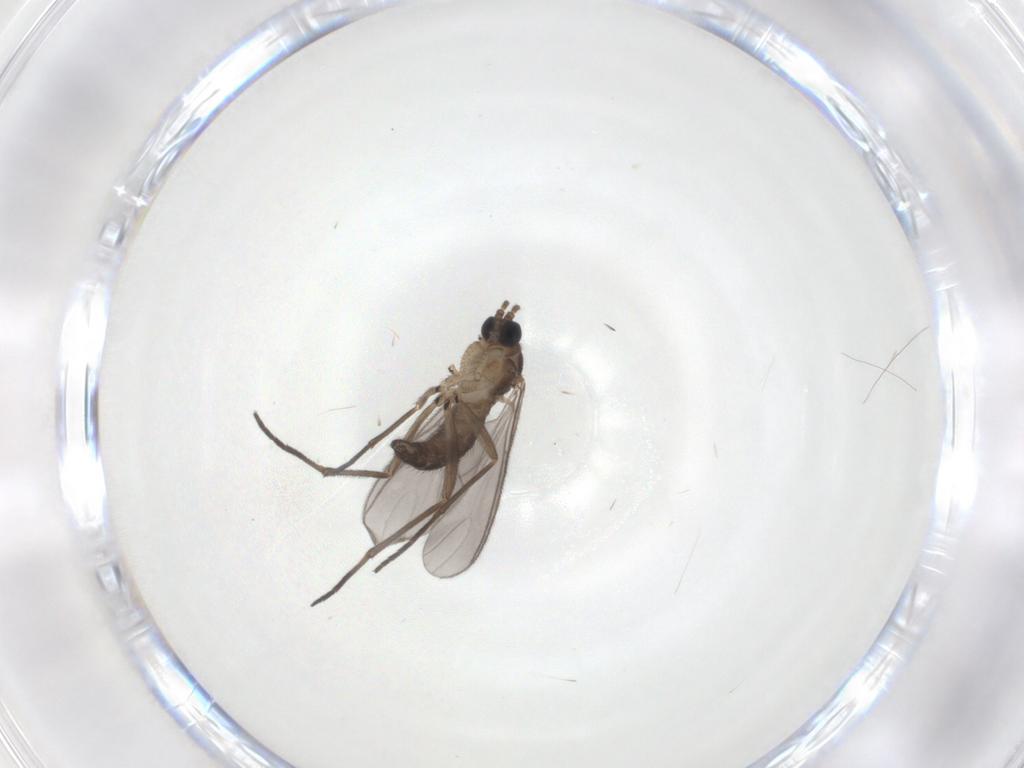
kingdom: Animalia
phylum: Arthropoda
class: Insecta
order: Diptera
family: Sciaridae
